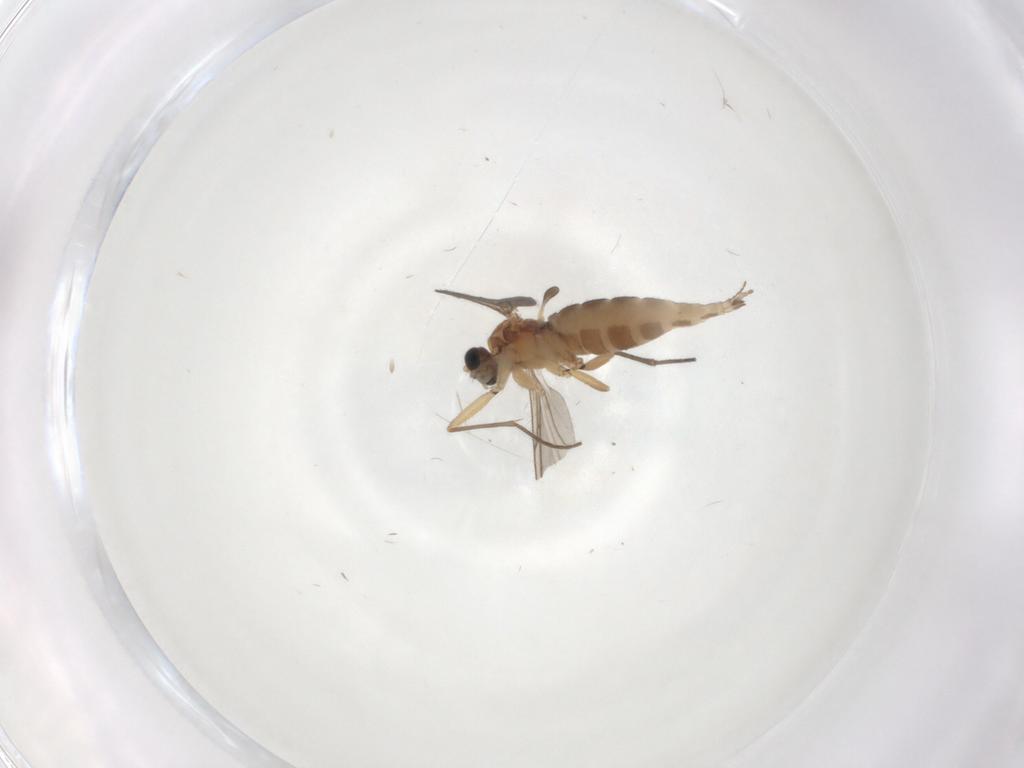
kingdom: Animalia
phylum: Arthropoda
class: Insecta
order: Diptera
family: Sciaridae
